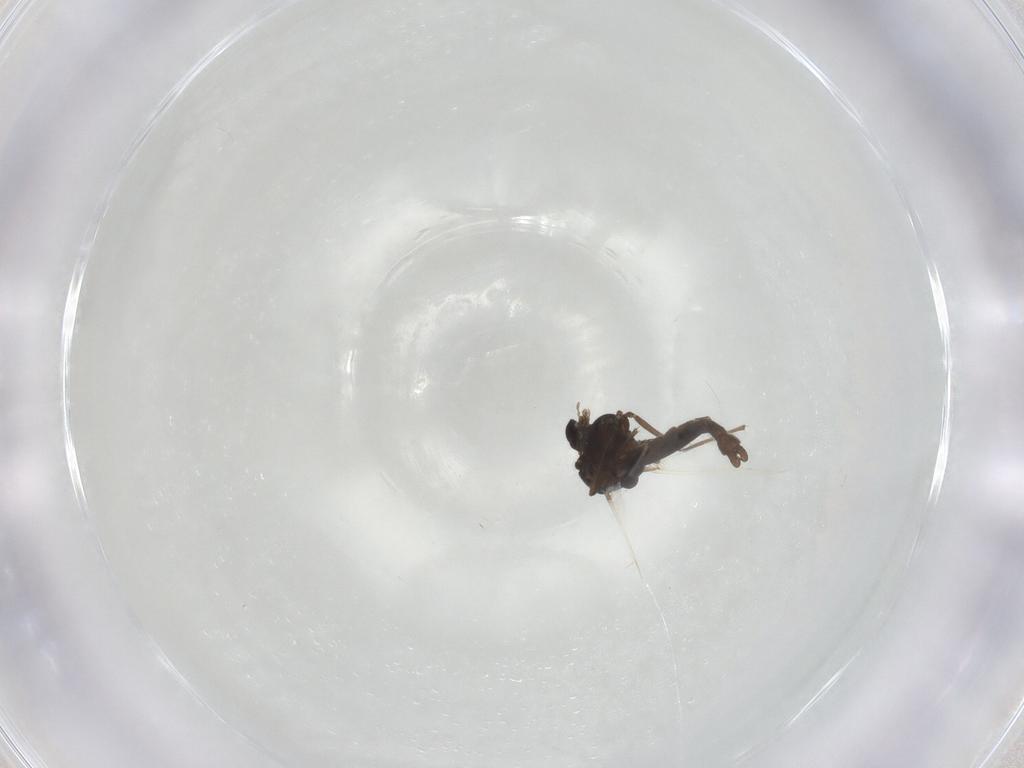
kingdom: Animalia
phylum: Arthropoda
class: Insecta
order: Diptera
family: Chironomidae
